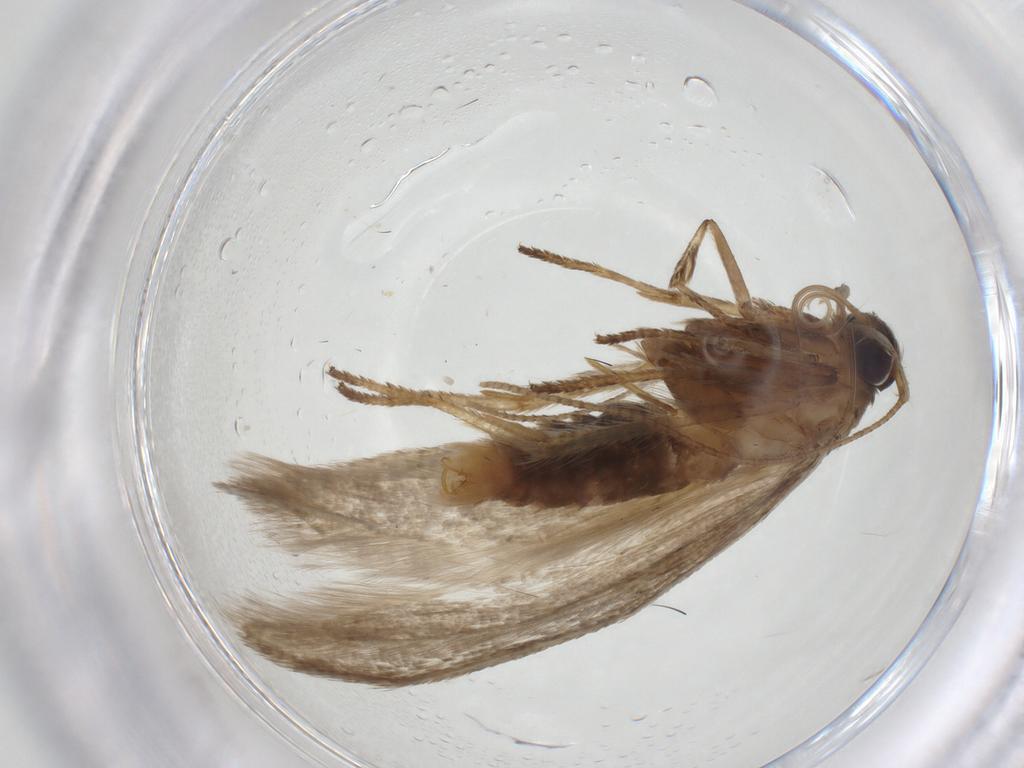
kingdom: Animalia
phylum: Arthropoda
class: Insecta
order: Lepidoptera
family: Blastobasidae
